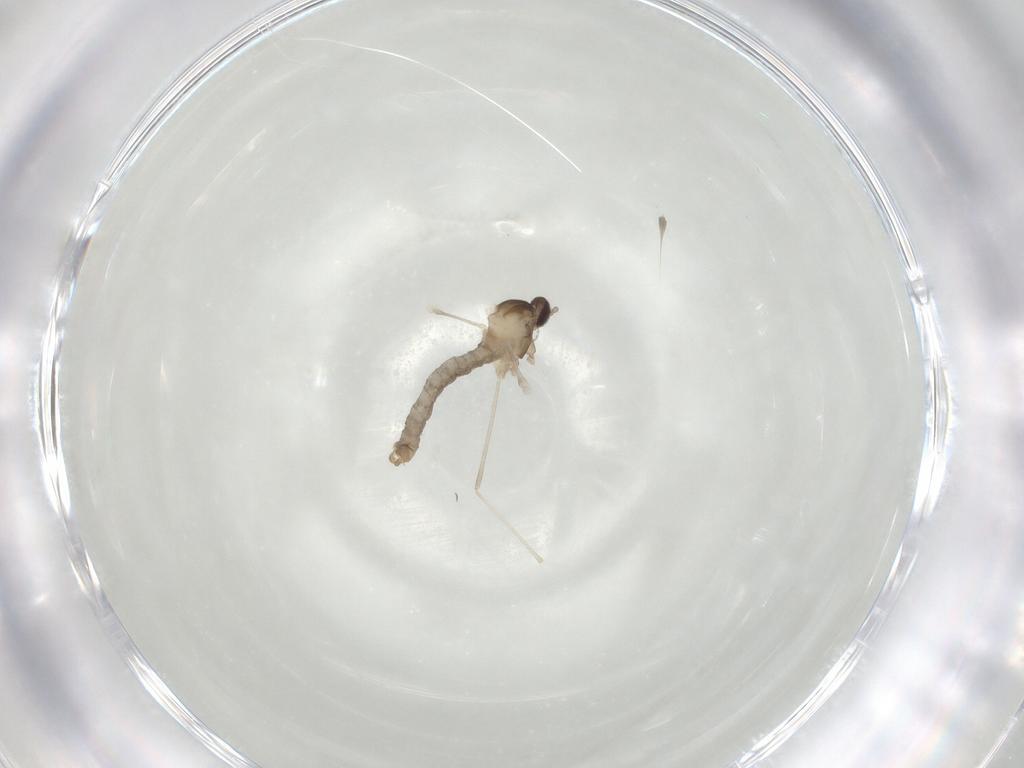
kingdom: Animalia
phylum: Arthropoda
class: Insecta
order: Diptera
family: Cecidomyiidae
